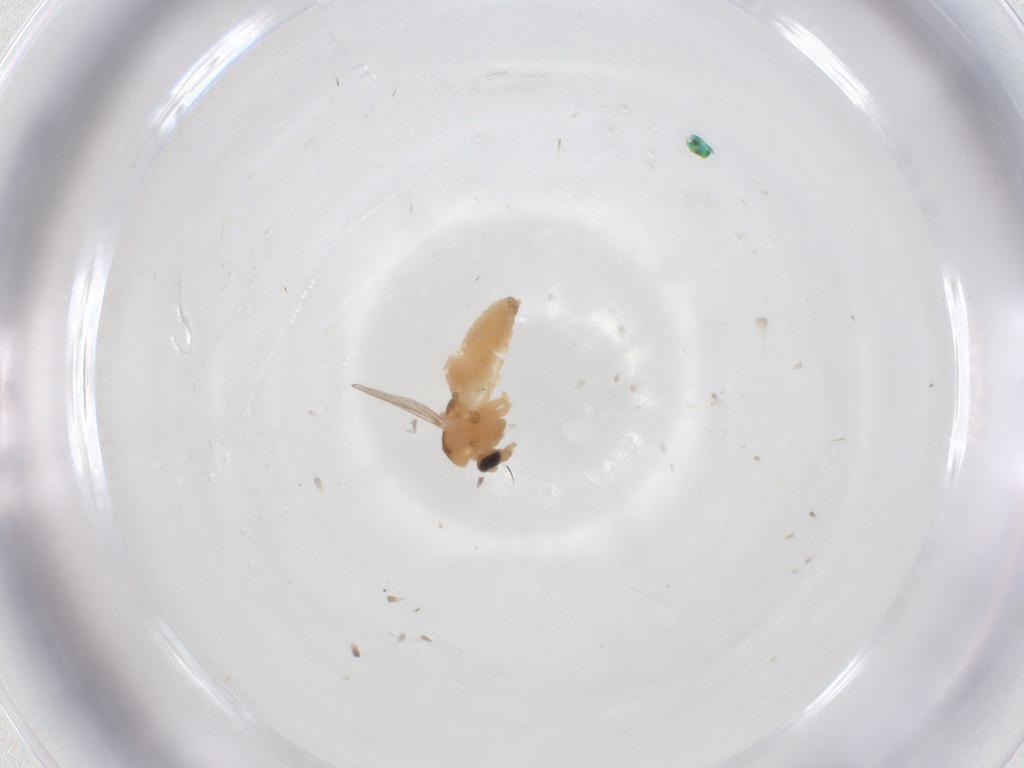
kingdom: Animalia
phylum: Arthropoda
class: Insecta
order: Diptera
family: Chironomidae
